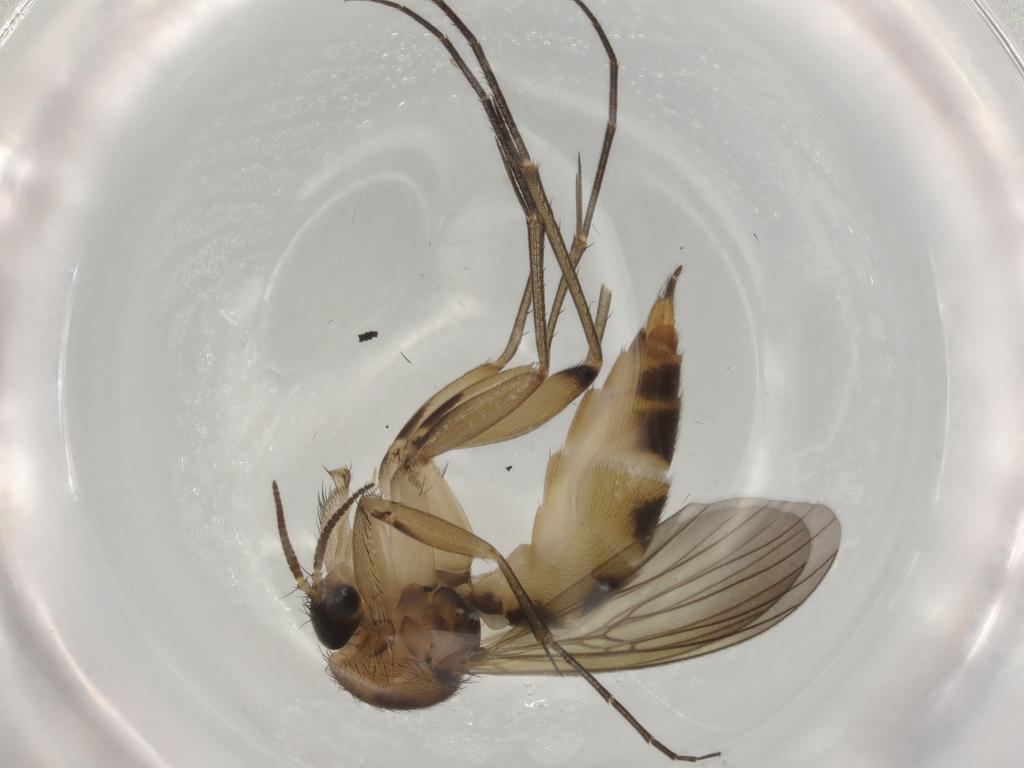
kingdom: Animalia
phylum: Arthropoda
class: Insecta
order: Diptera
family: Mycetophilidae
